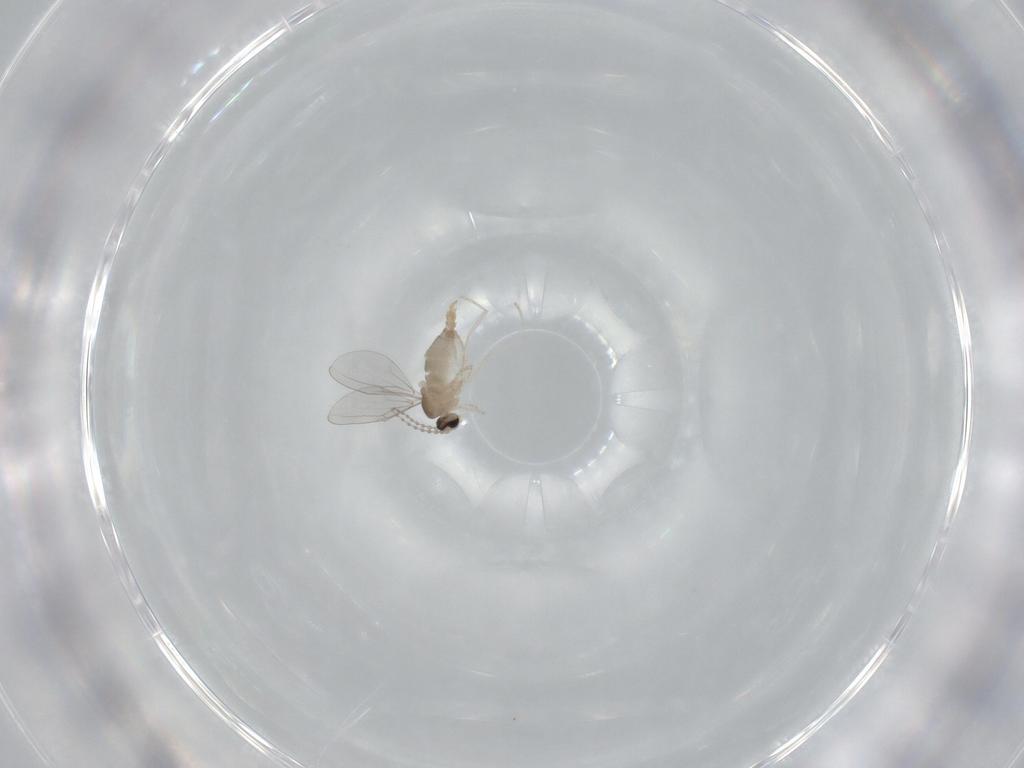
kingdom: Animalia
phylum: Arthropoda
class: Insecta
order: Diptera
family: Cecidomyiidae
